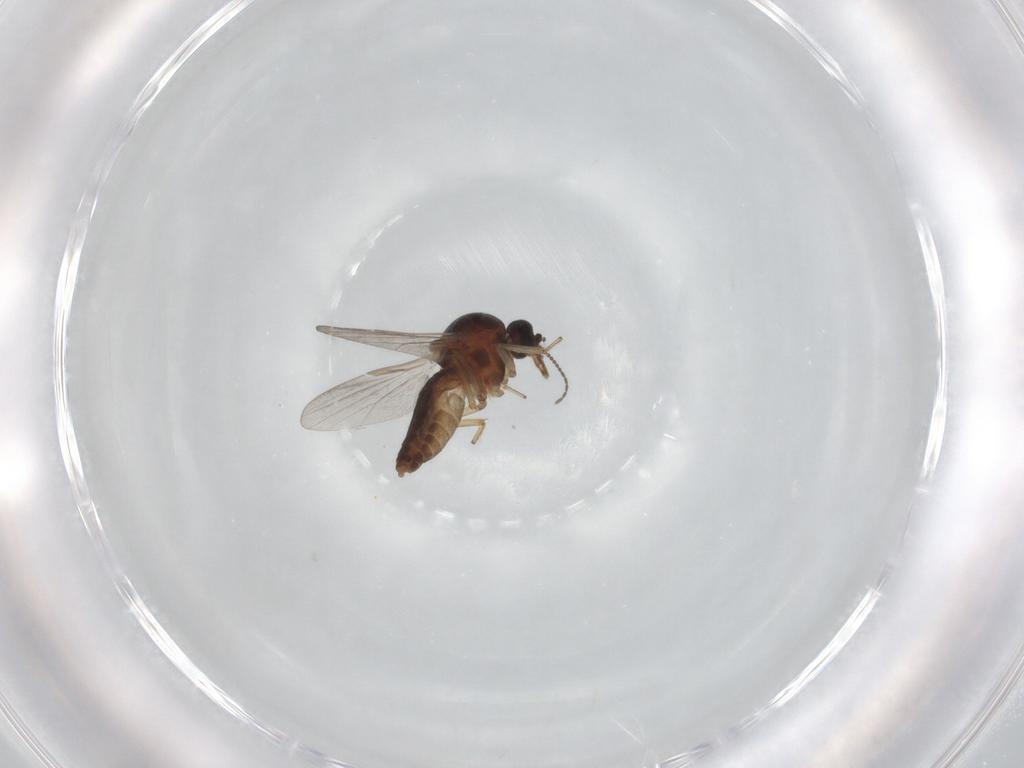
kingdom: Animalia
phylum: Arthropoda
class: Insecta
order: Diptera
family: Ceratopogonidae
